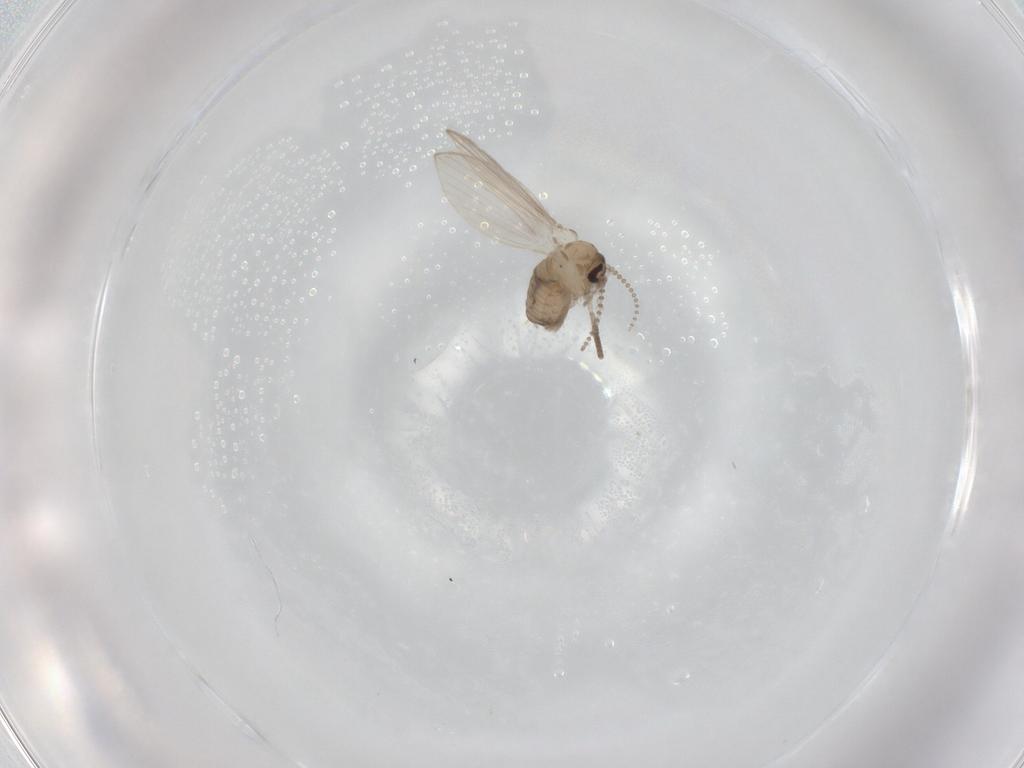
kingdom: Animalia
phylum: Arthropoda
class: Insecta
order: Diptera
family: Psychodidae
